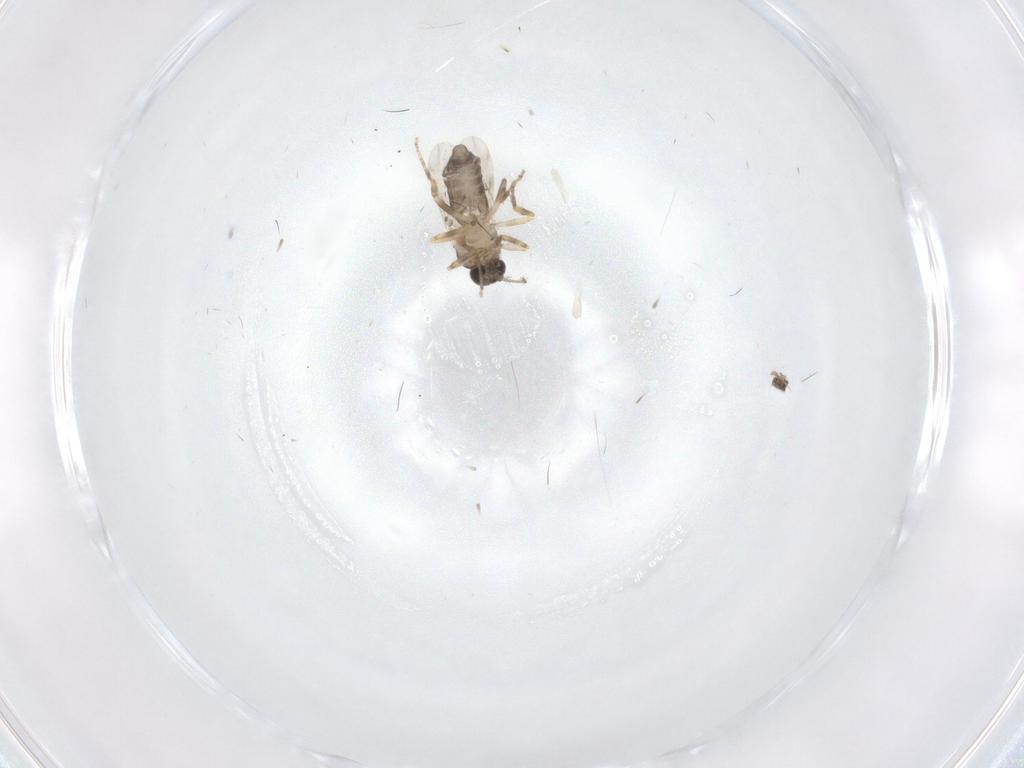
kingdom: Animalia
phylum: Arthropoda
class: Insecta
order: Diptera
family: Ceratopogonidae
